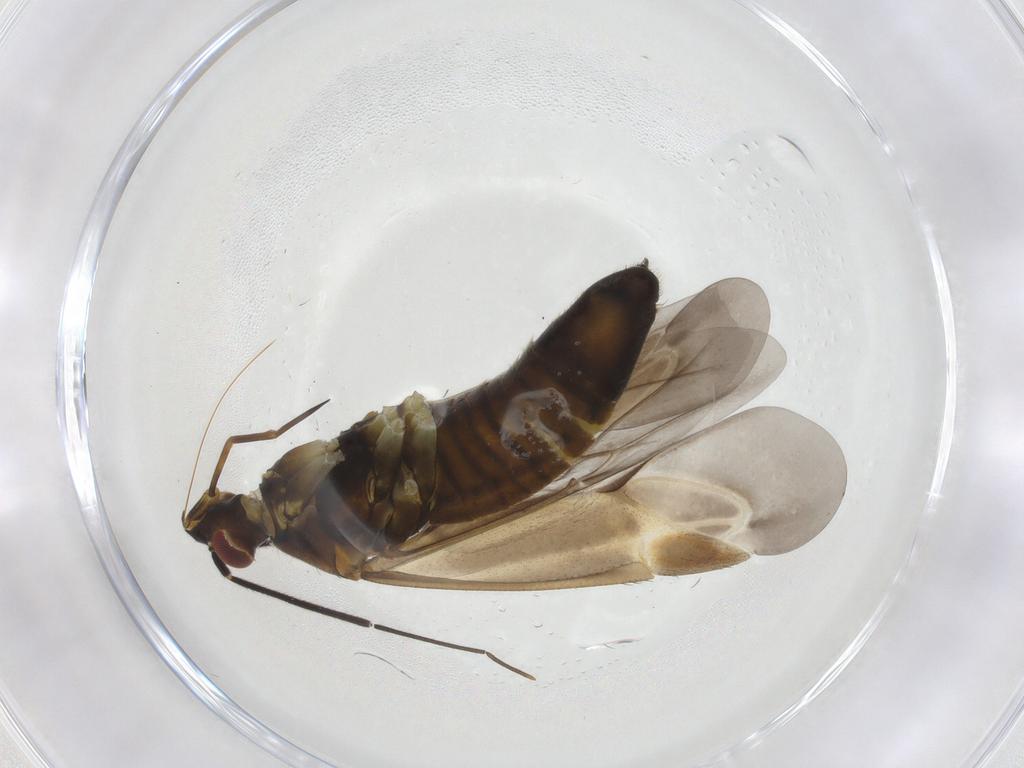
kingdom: Animalia
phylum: Arthropoda
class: Insecta
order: Hemiptera
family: Miridae
